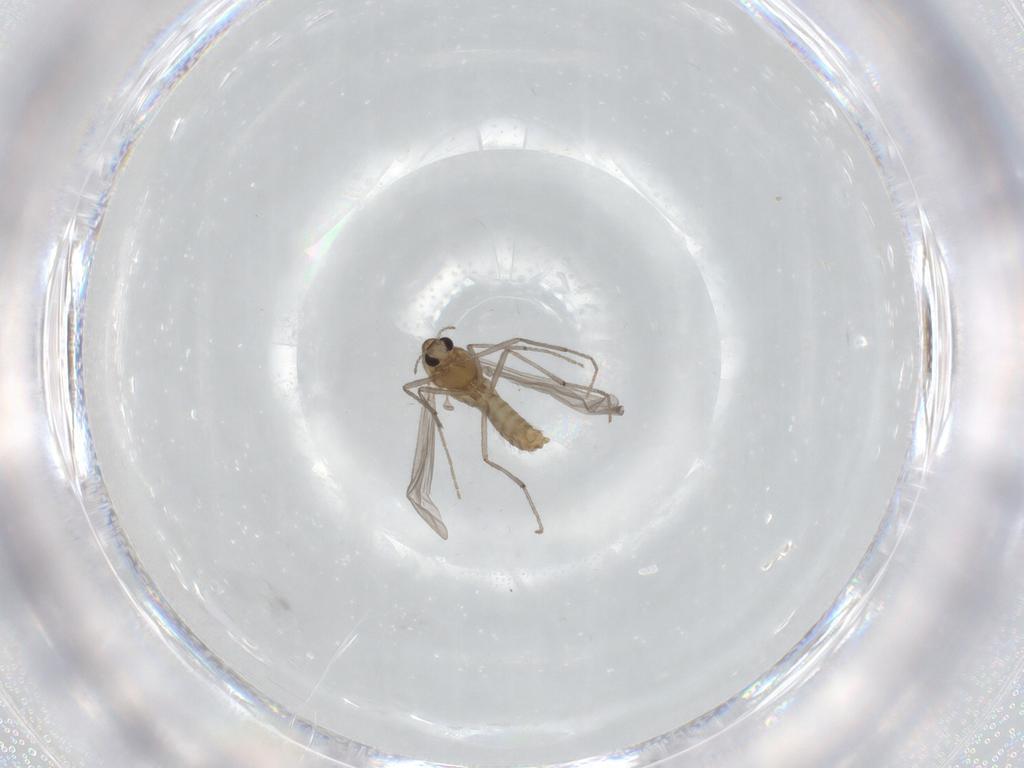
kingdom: Animalia
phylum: Arthropoda
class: Insecta
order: Diptera
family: Chironomidae
